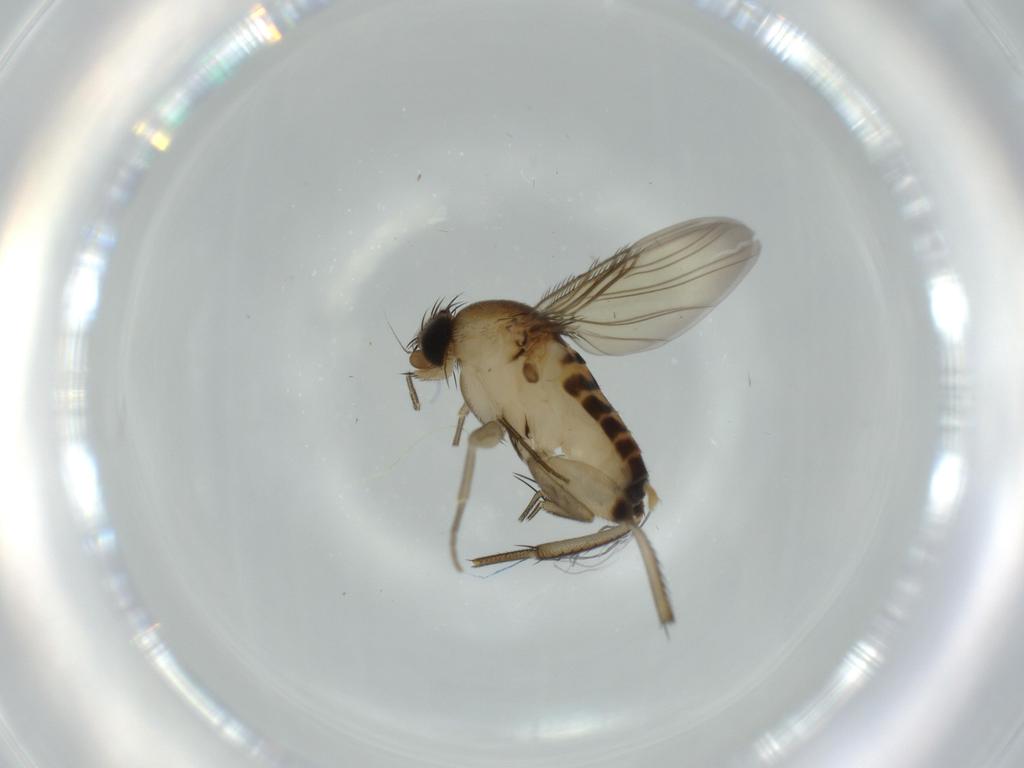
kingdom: Animalia
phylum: Arthropoda
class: Insecta
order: Diptera
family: Phoridae
